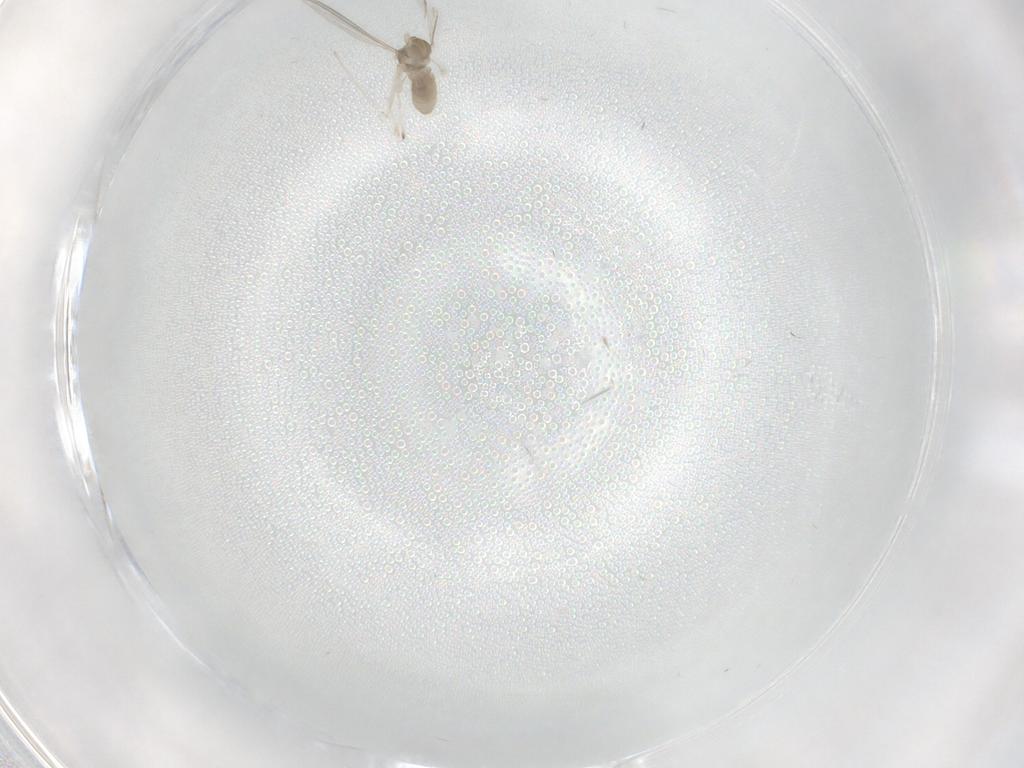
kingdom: Animalia
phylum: Arthropoda
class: Insecta
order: Diptera
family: Cecidomyiidae
